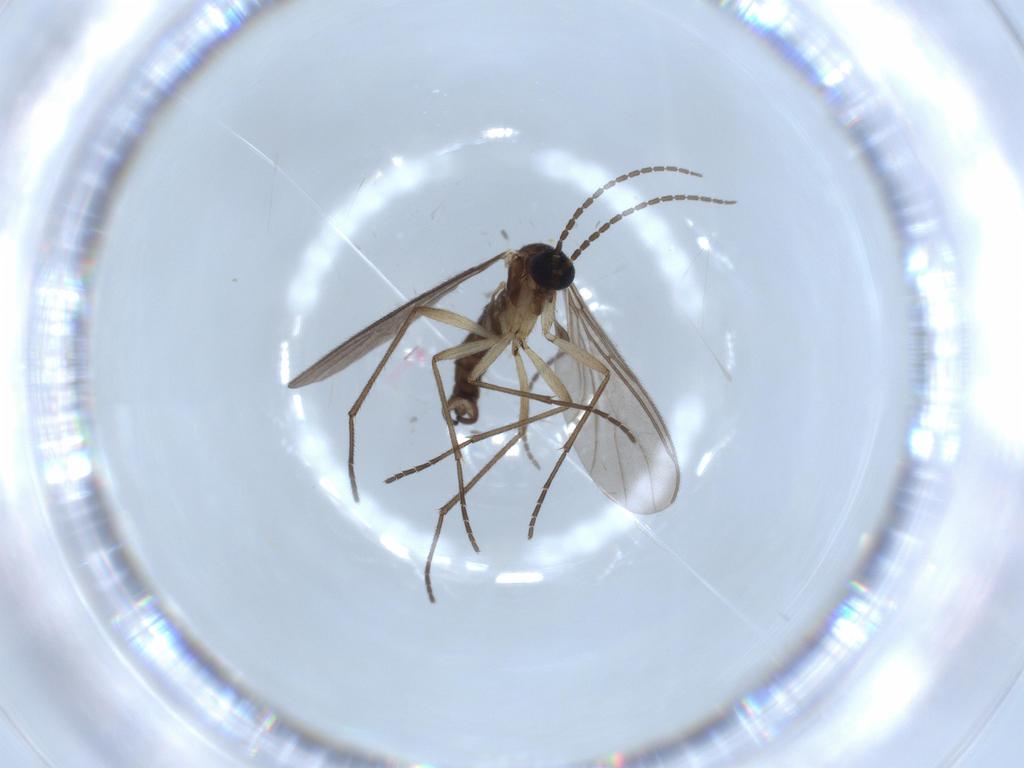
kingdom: Animalia
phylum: Arthropoda
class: Insecta
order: Diptera
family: Sciaridae
